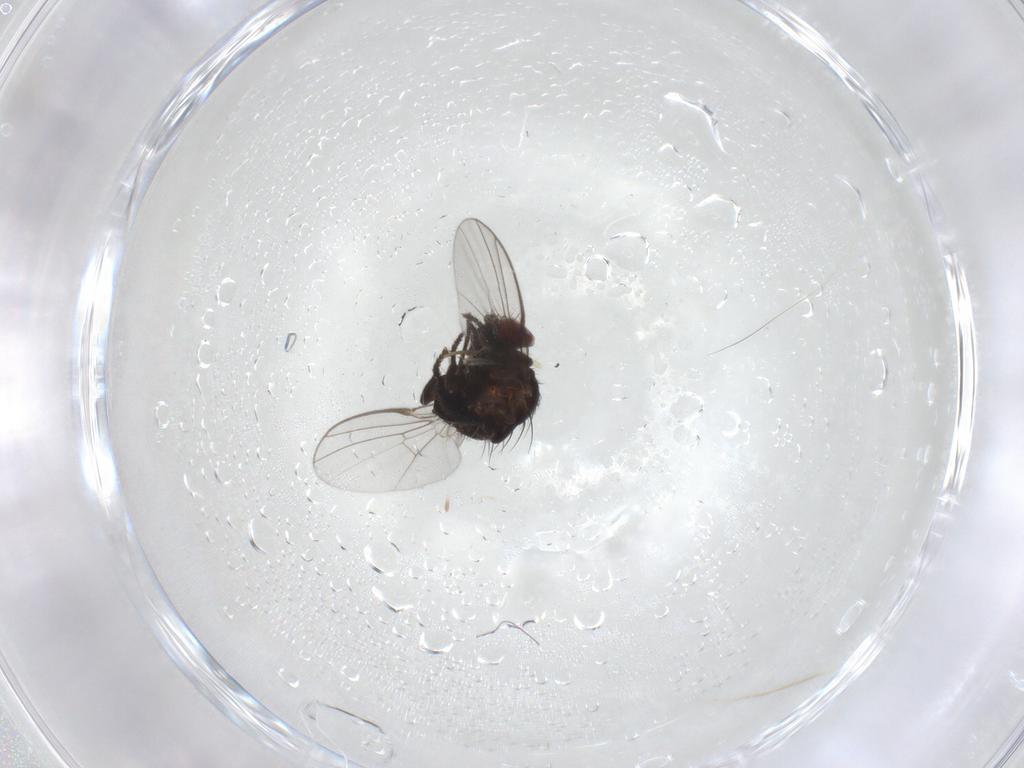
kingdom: Animalia
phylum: Arthropoda
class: Insecta
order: Diptera
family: Agromyzidae
